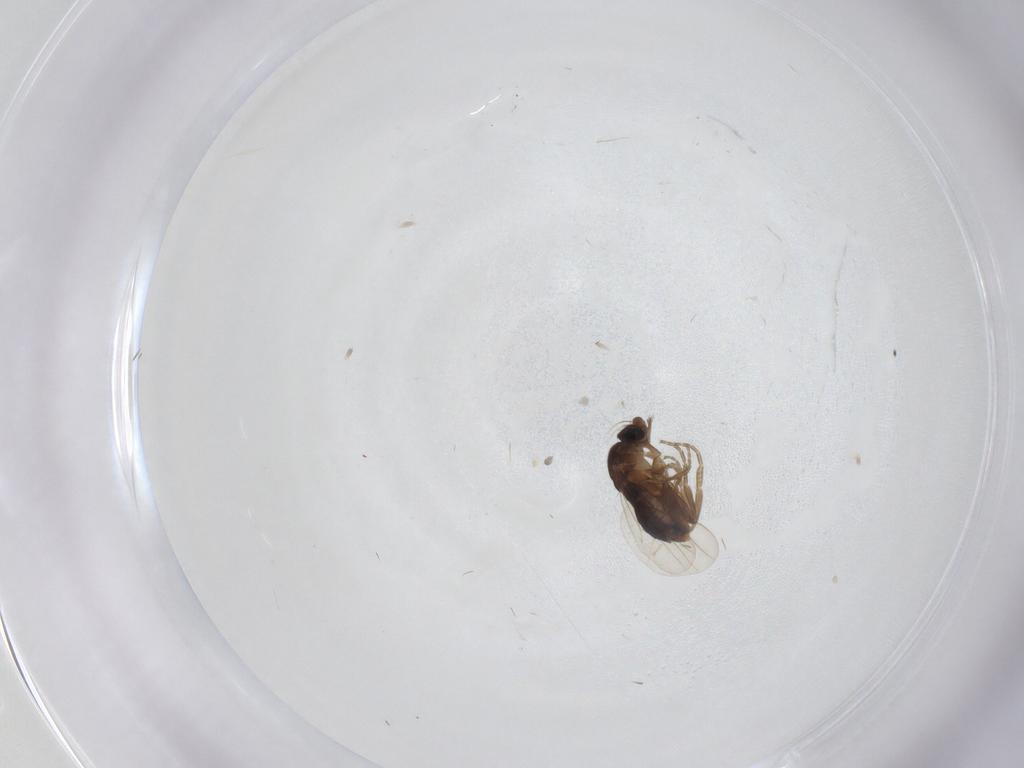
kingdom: Animalia
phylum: Arthropoda
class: Insecta
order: Diptera
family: Phoridae
